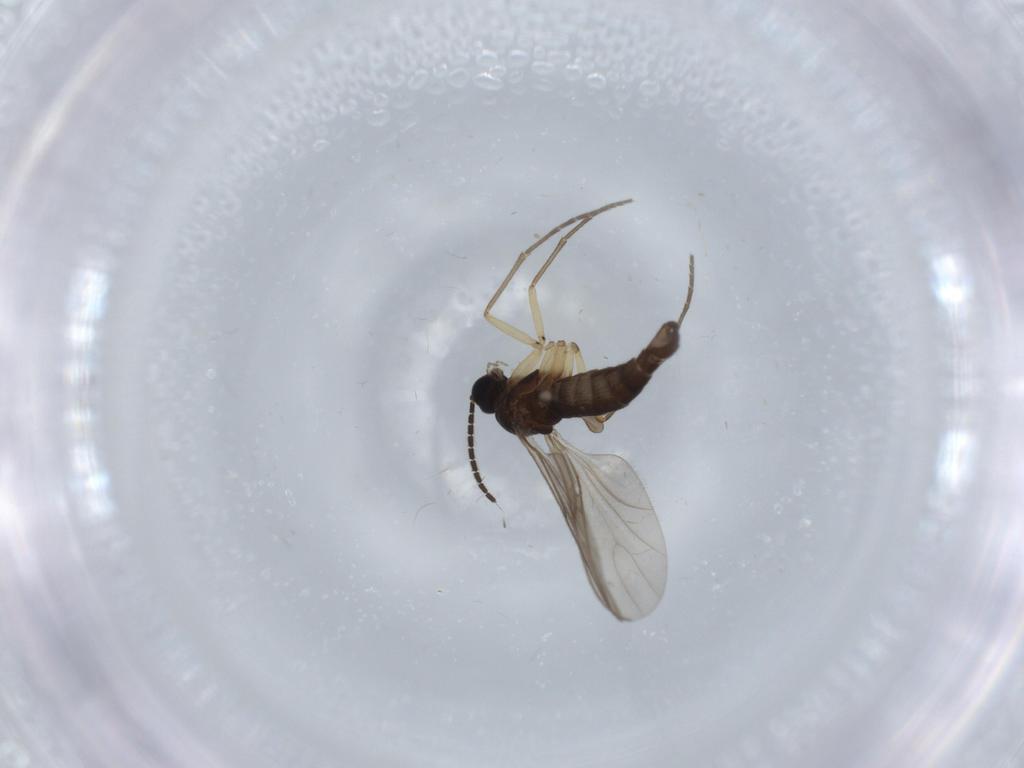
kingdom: Animalia
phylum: Arthropoda
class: Insecta
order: Diptera
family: Sciaridae
